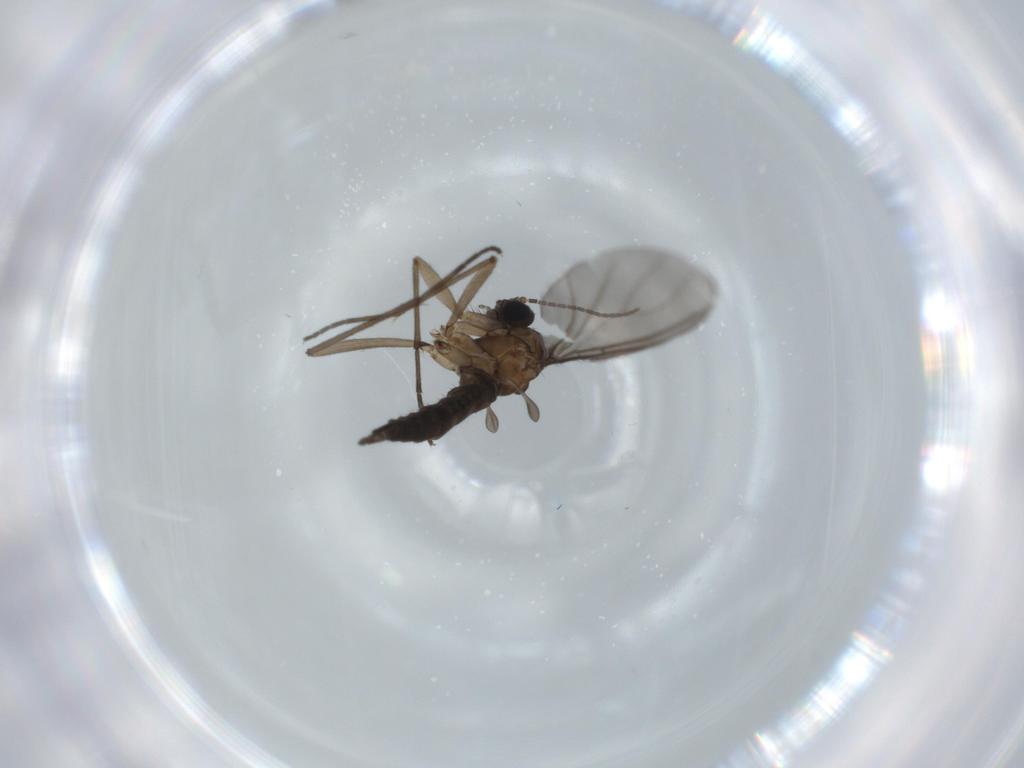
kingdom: Animalia
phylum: Arthropoda
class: Insecta
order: Diptera
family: Sciaridae
